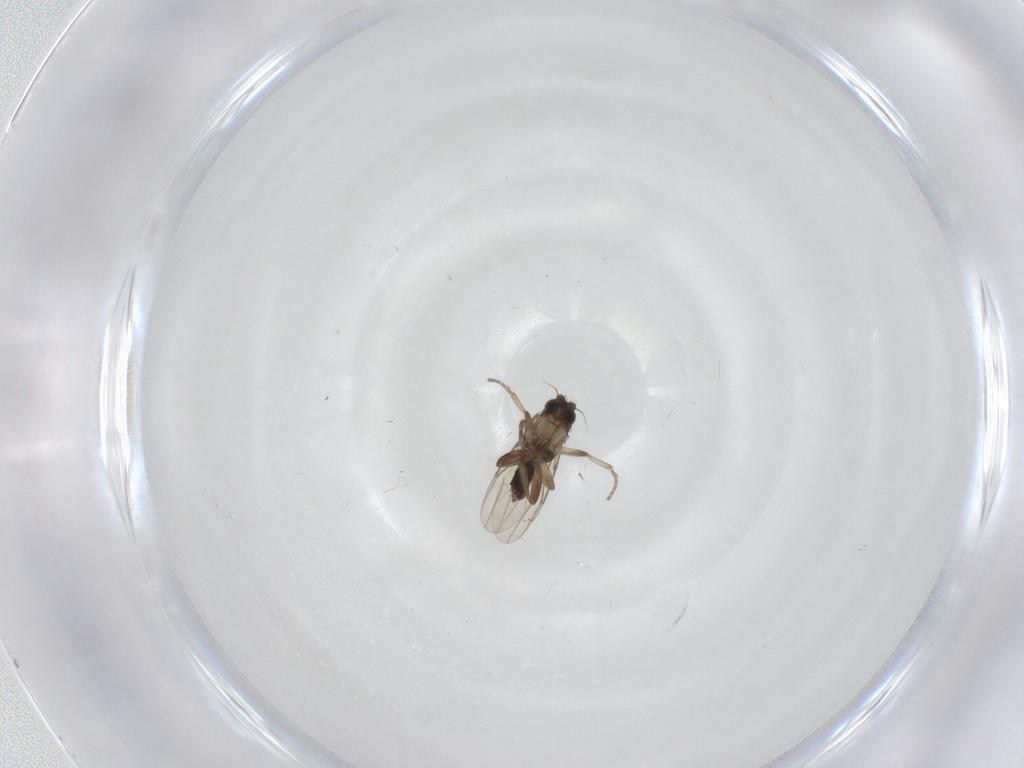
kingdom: Animalia
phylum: Arthropoda
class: Insecta
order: Diptera
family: Phoridae
